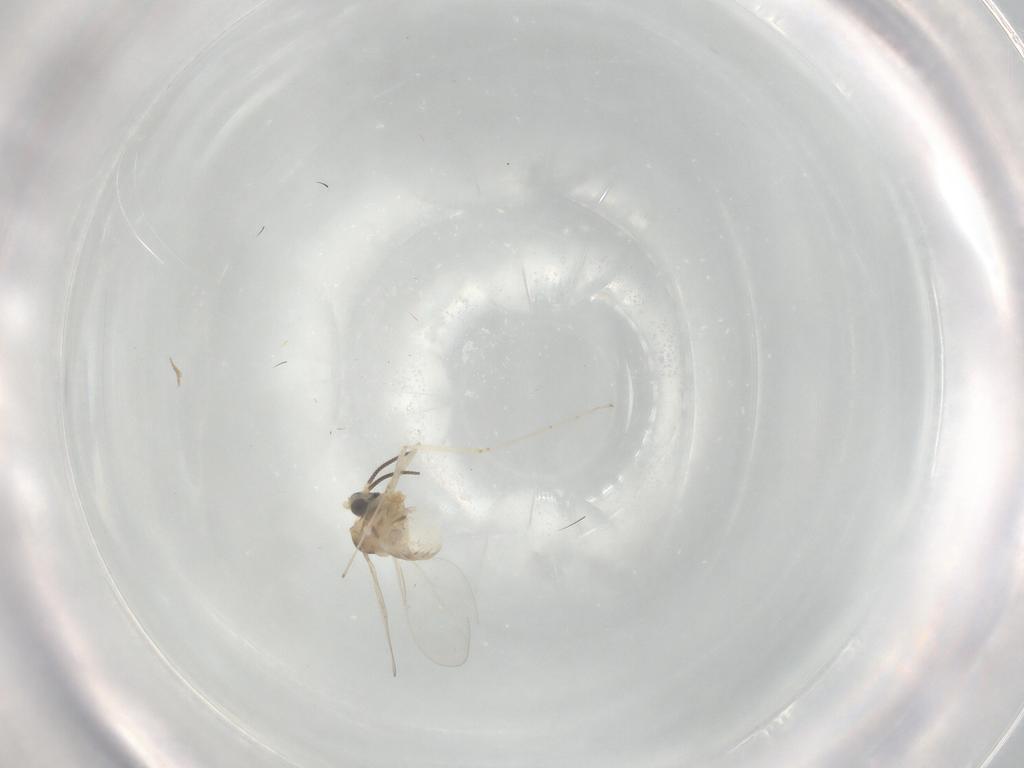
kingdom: Animalia
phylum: Arthropoda
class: Insecta
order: Diptera
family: Cecidomyiidae
